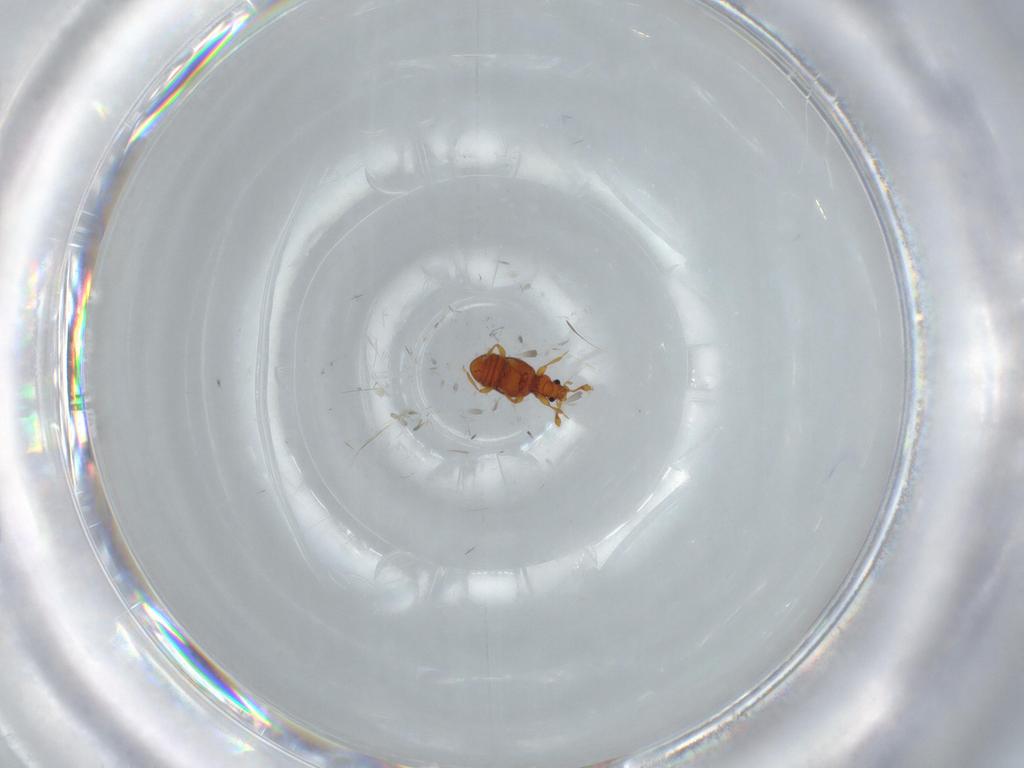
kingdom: Animalia
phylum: Arthropoda
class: Insecta
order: Coleoptera
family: Staphylinidae
